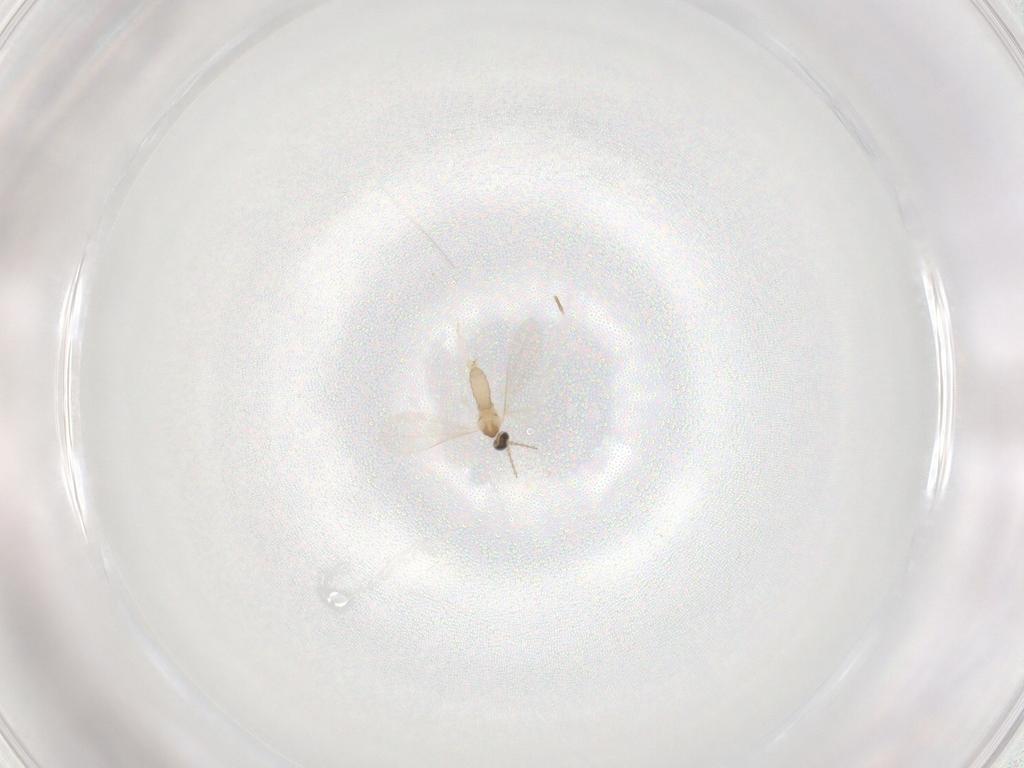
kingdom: Animalia
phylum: Arthropoda
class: Insecta
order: Diptera
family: Cecidomyiidae
